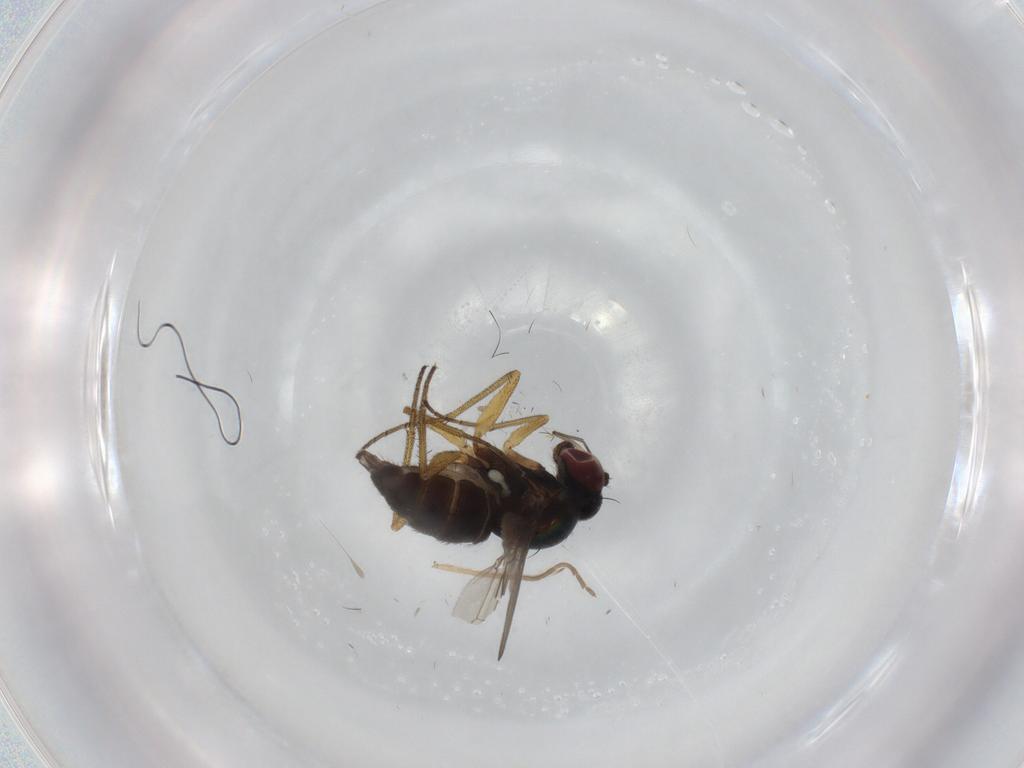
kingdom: Animalia
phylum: Arthropoda
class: Insecta
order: Diptera
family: Dolichopodidae
